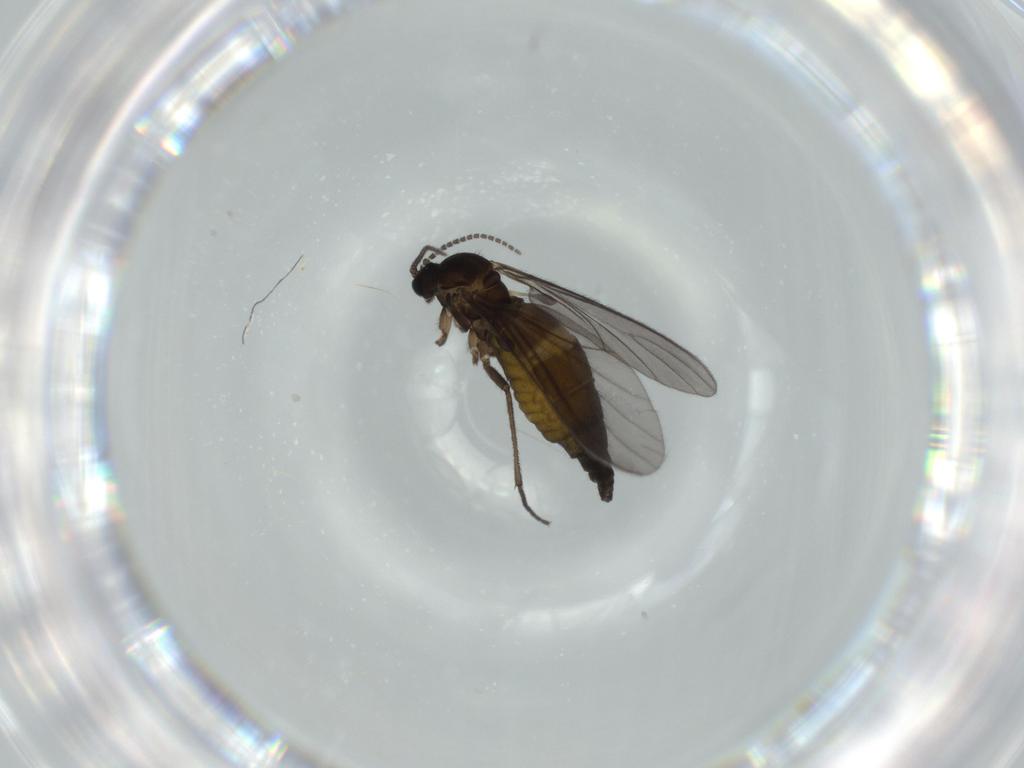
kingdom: Animalia
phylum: Arthropoda
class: Insecta
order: Diptera
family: Sciaridae
